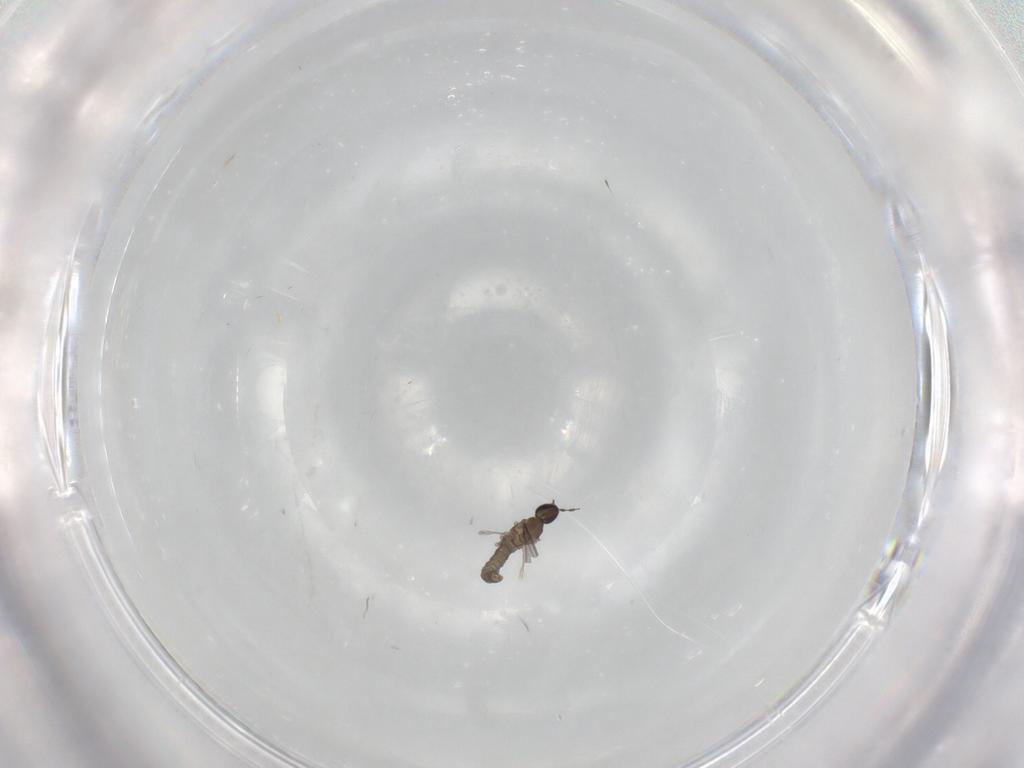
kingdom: Animalia
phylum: Arthropoda
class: Insecta
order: Diptera
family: Cecidomyiidae
